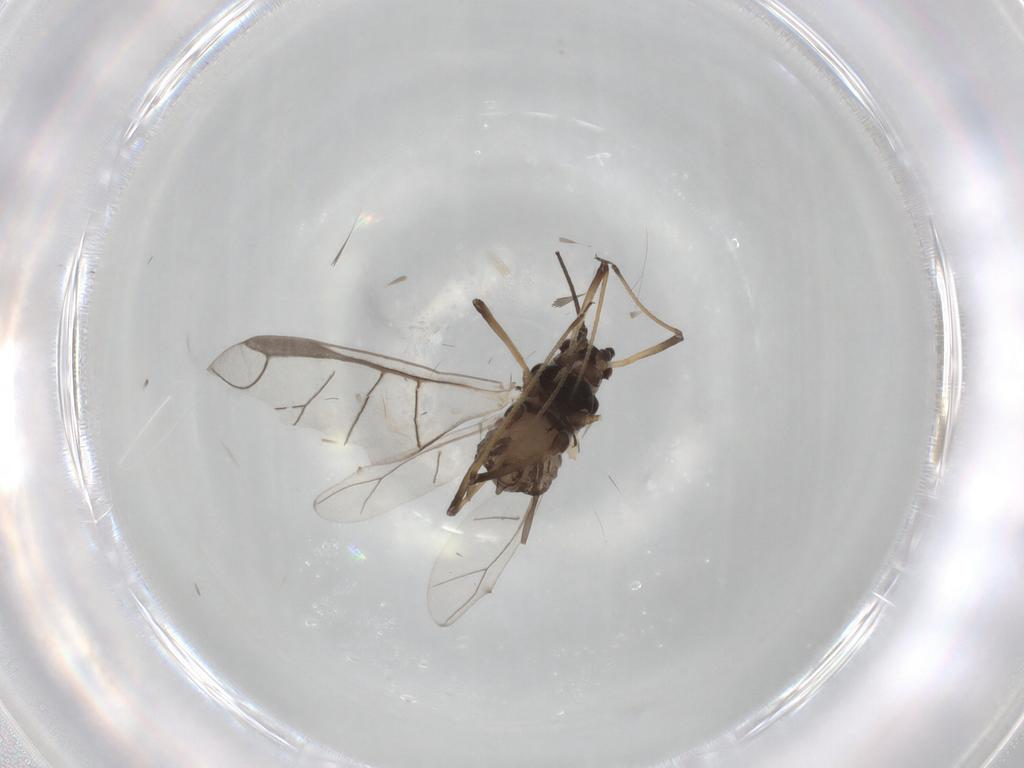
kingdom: Animalia
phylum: Arthropoda
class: Insecta
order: Hemiptera
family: Aphididae
